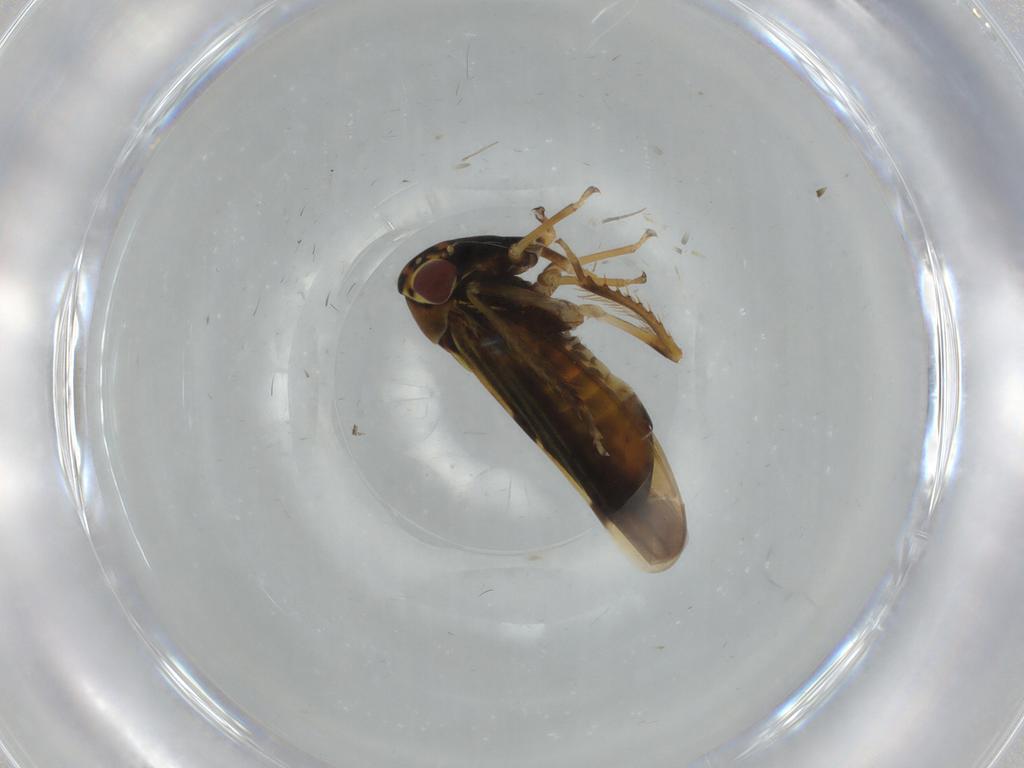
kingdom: Animalia
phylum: Arthropoda
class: Insecta
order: Hemiptera
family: Cicadellidae
